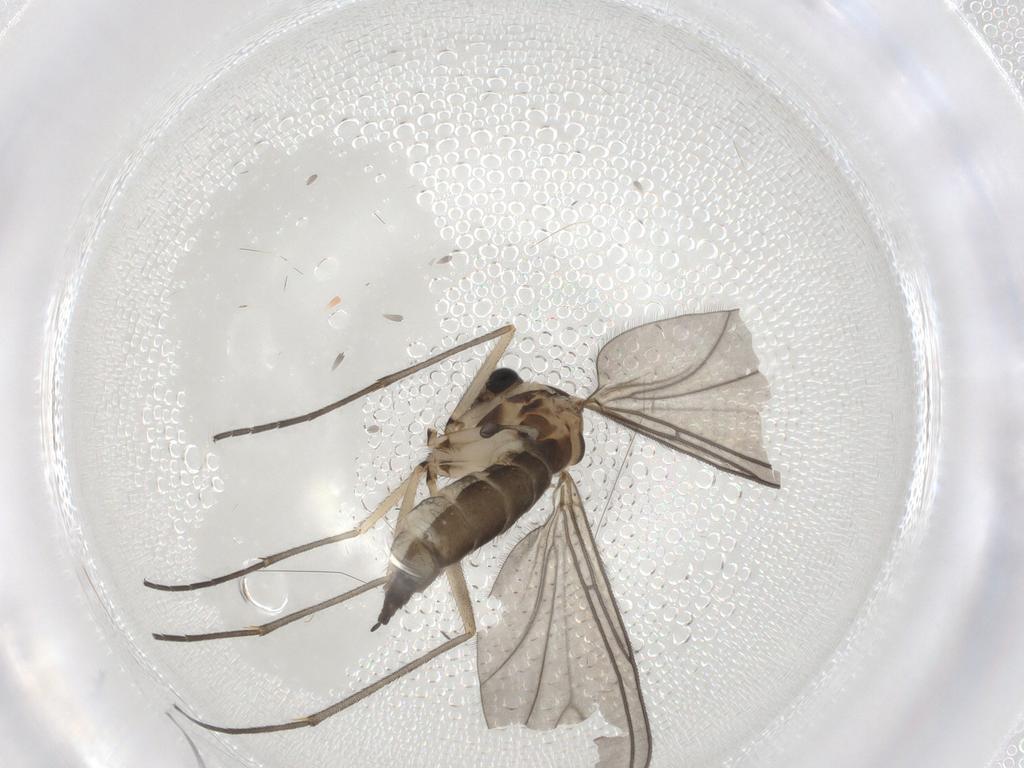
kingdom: Animalia
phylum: Arthropoda
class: Insecta
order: Diptera
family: Sciaridae
